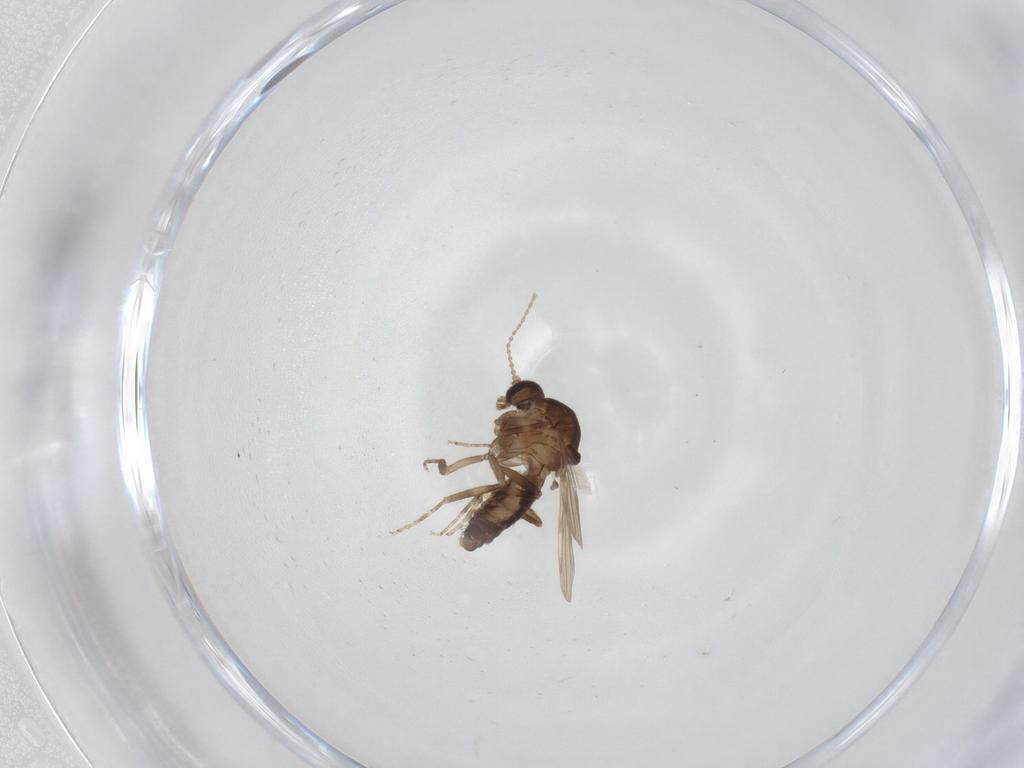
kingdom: Animalia
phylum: Arthropoda
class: Insecta
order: Diptera
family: Ceratopogonidae
